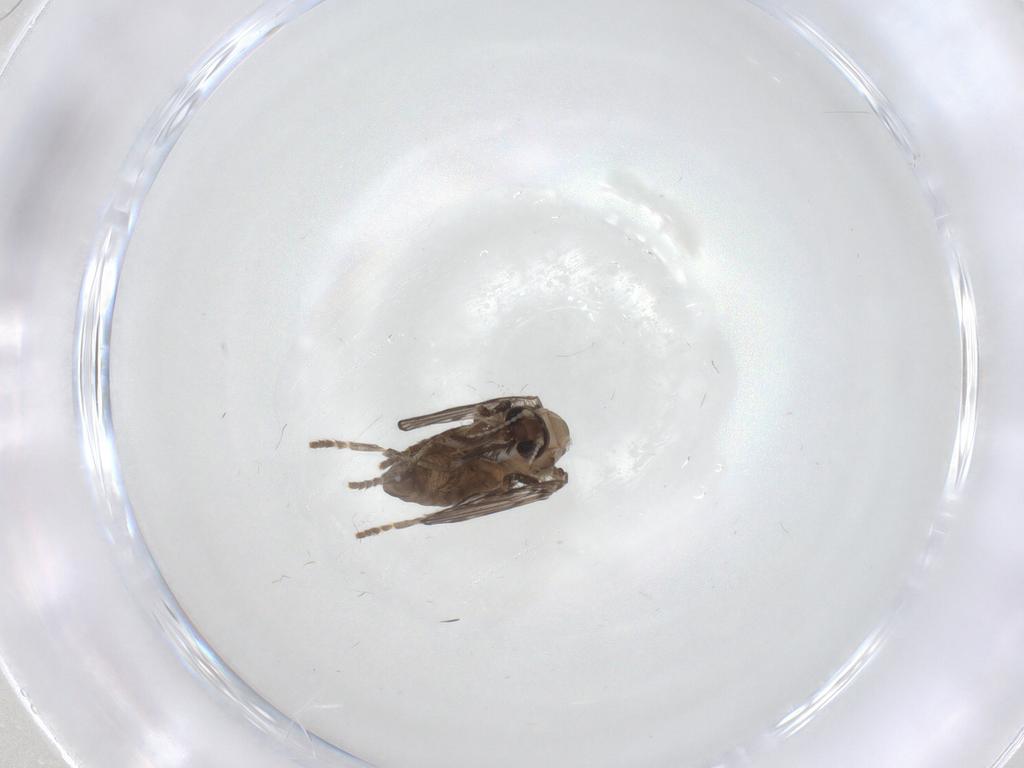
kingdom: Animalia
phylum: Arthropoda
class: Insecta
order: Diptera
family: Psychodidae
